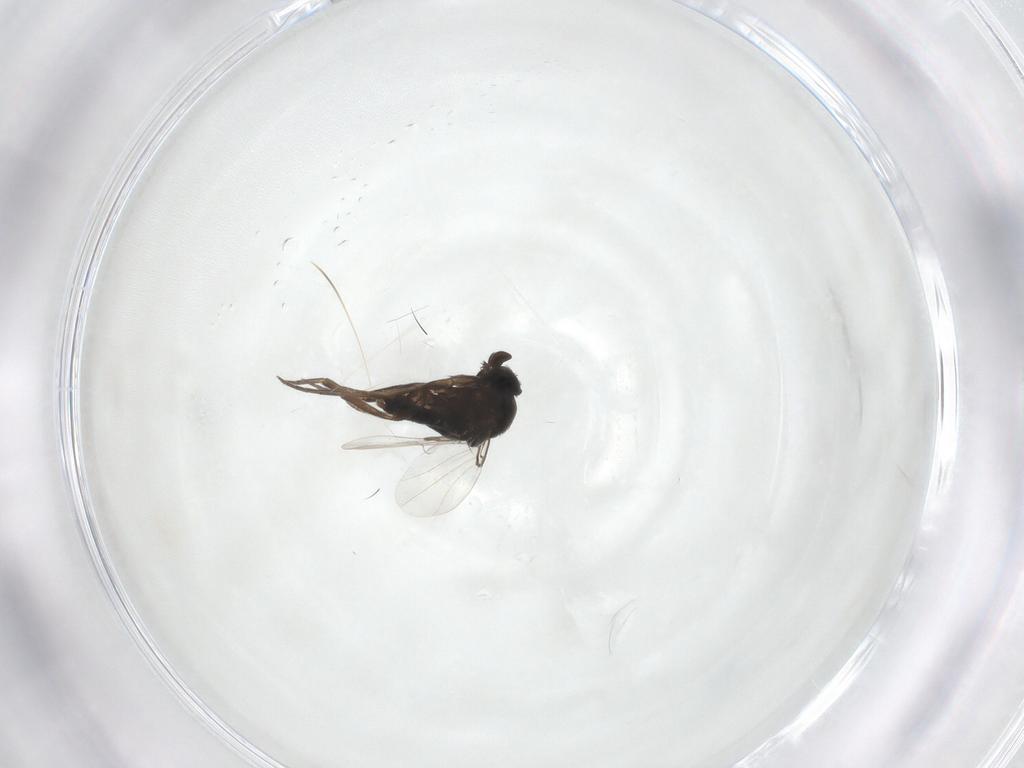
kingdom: Animalia
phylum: Arthropoda
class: Insecta
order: Diptera
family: Phoridae
